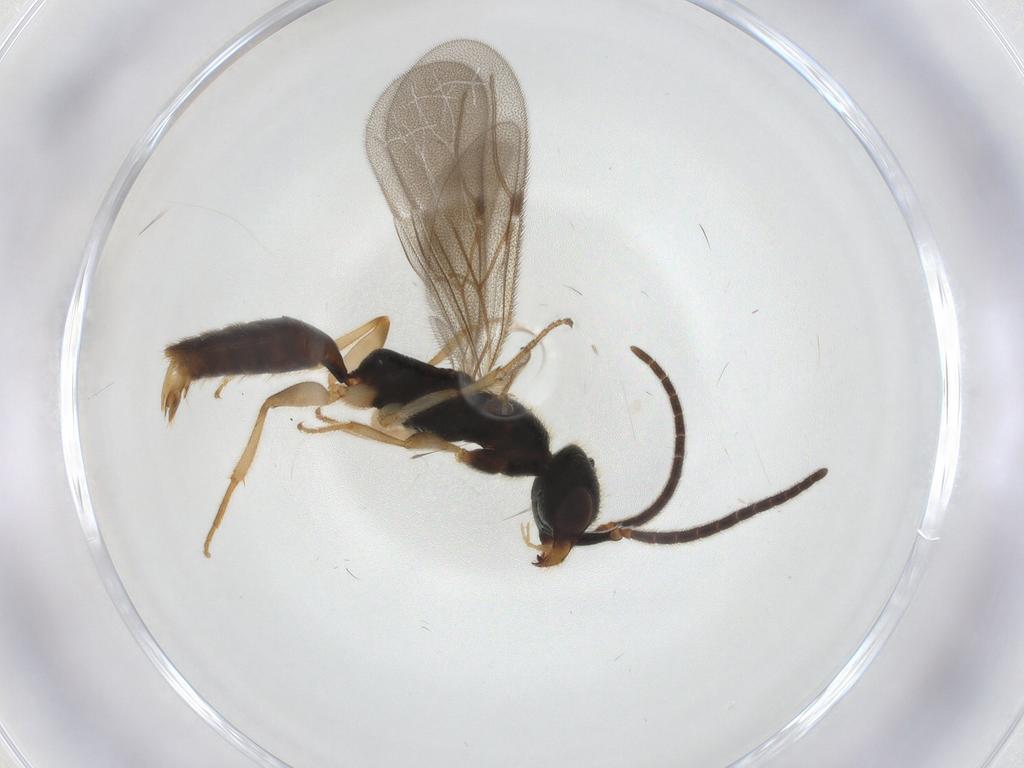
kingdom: Animalia
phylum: Arthropoda
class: Insecta
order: Hymenoptera
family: Bethylidae
